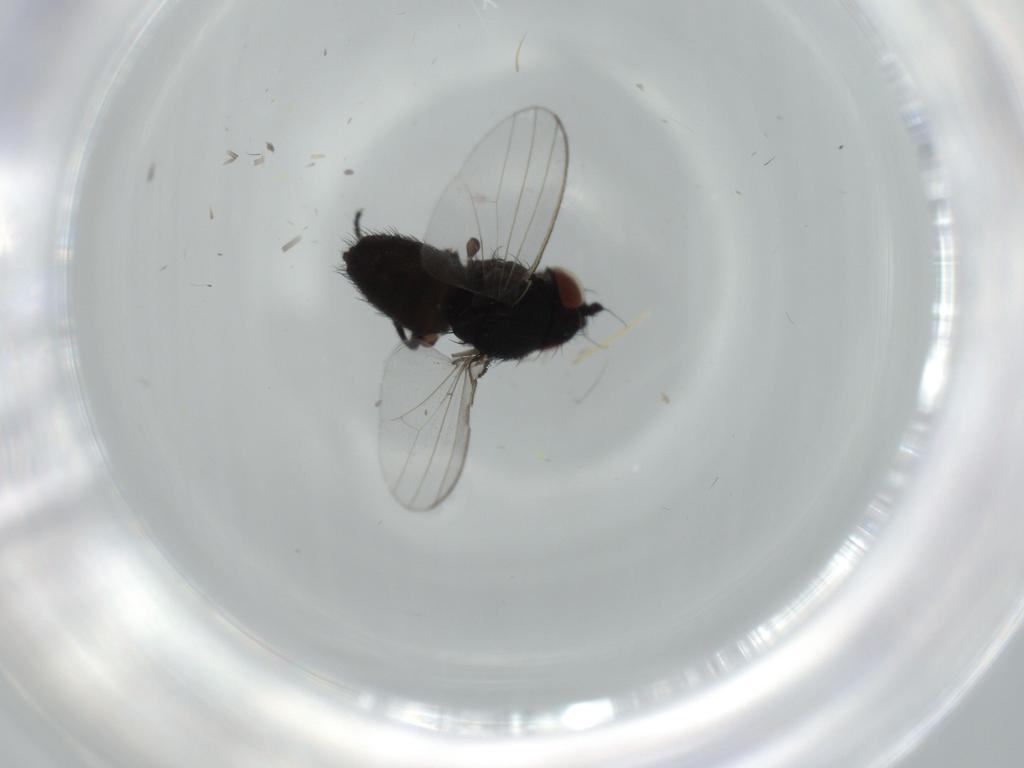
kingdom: Animalia
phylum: Arthropoda
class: Insecta
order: Diptera
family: Milichiidae
